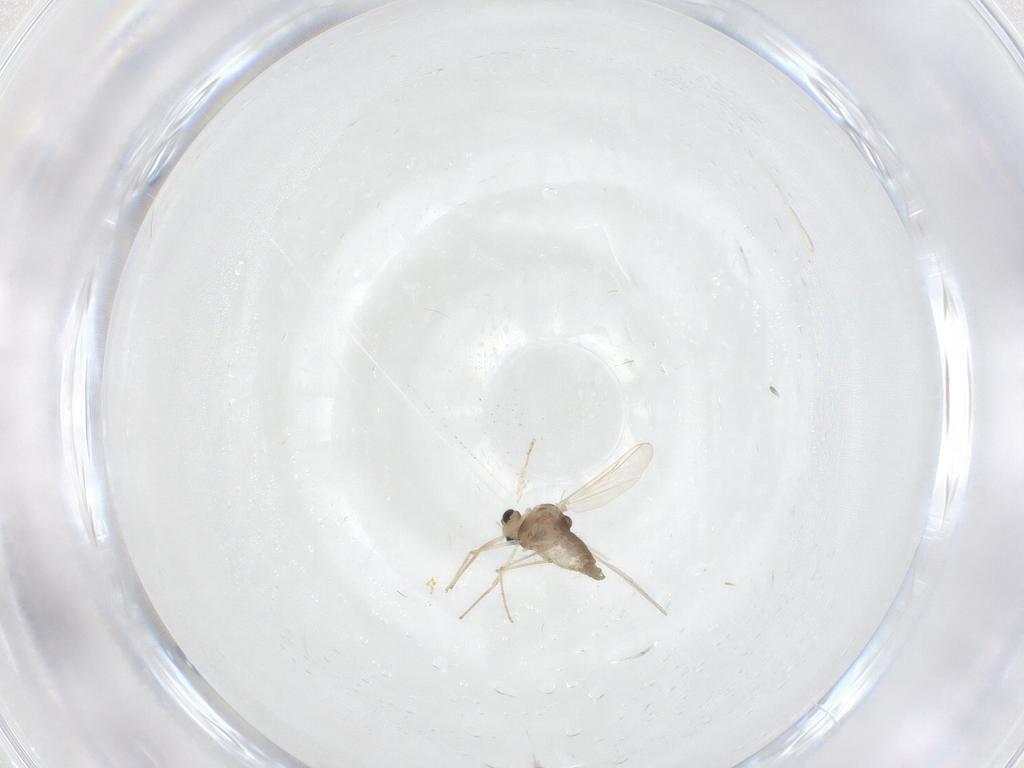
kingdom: Animalia
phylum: Arthropoda
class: Insecta
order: Diptera
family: Chironomidae
